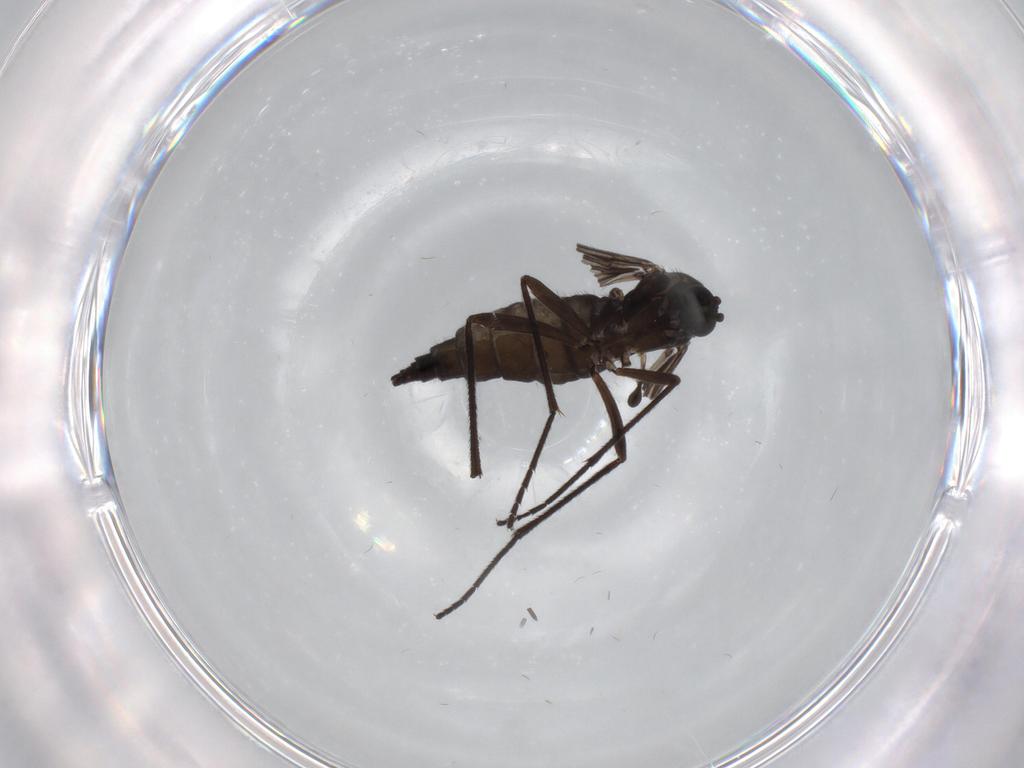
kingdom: Animalia
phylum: Arthropoda
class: Insecta
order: Diptera
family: Sciaridae
